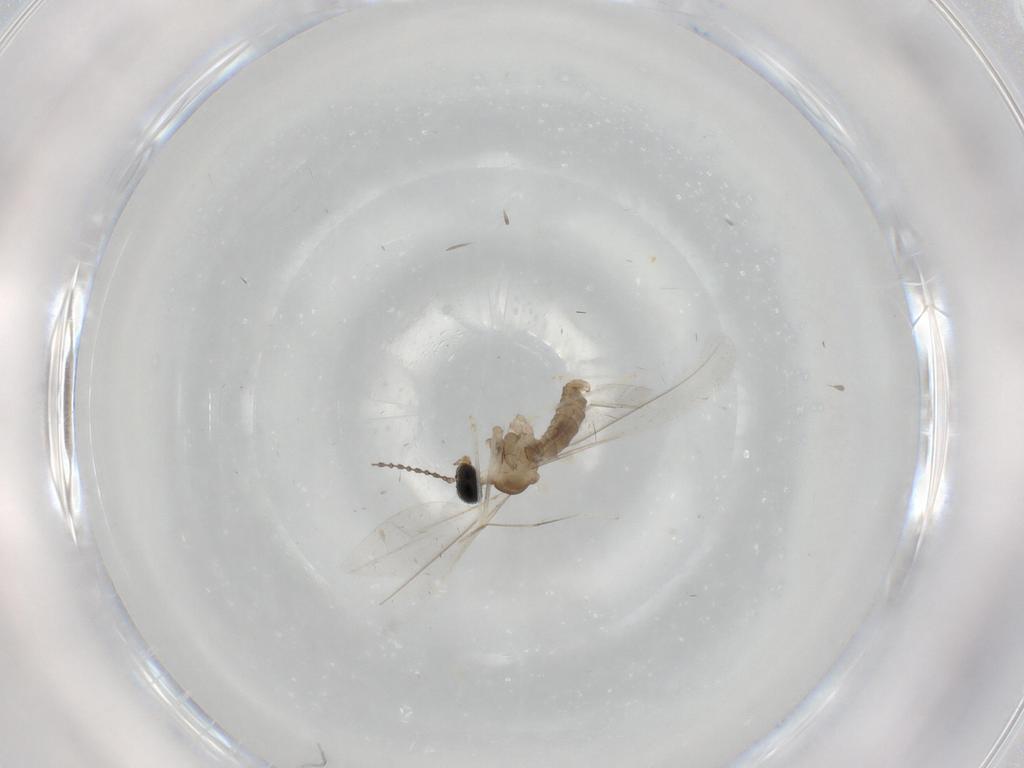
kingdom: Animalia
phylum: Arthropoda
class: Insecta
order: Diptera
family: Cecidomyiidae
